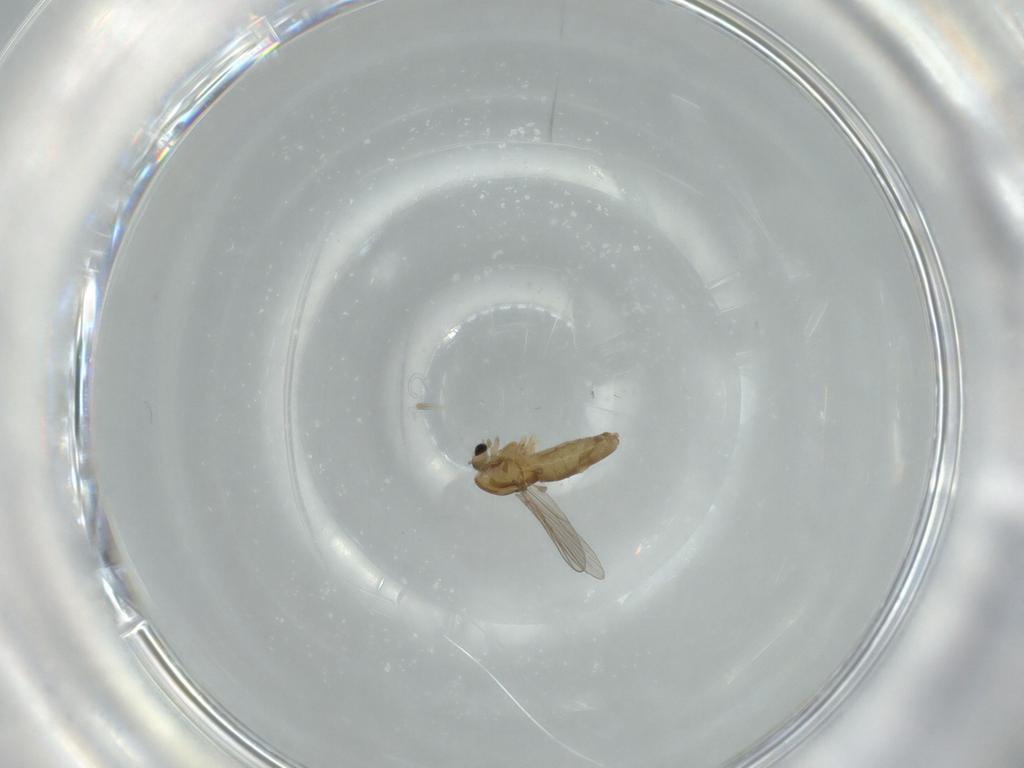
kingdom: Animalia
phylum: Arthropoda
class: Insecta
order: Diptera
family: Chironomidae
